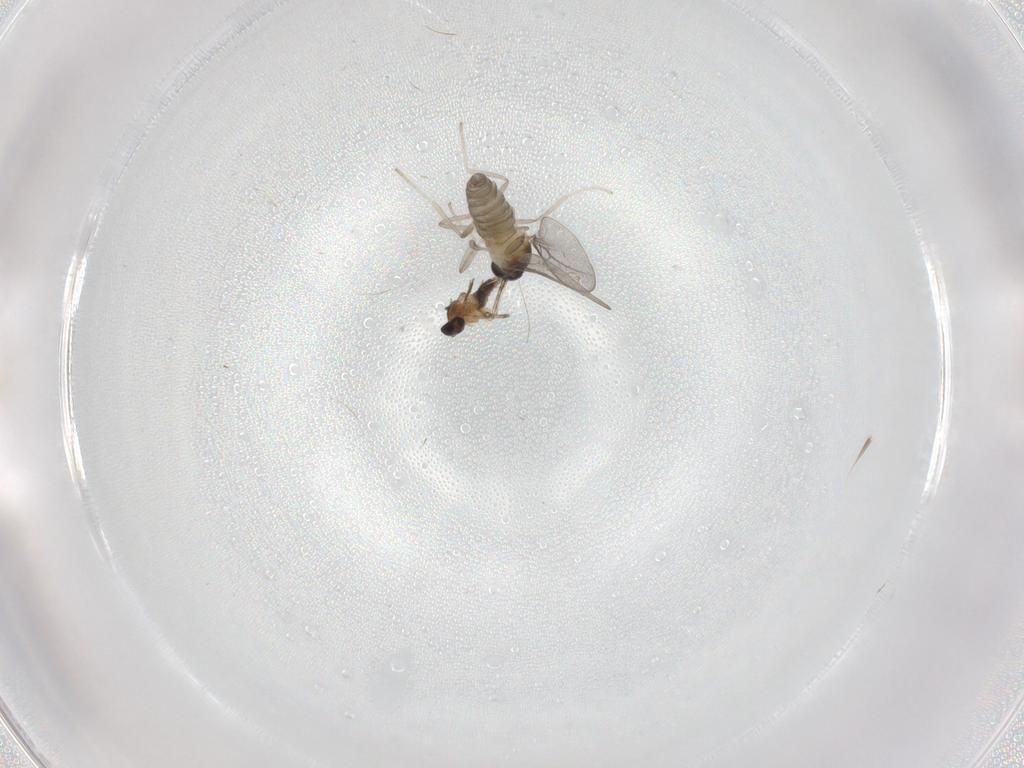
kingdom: Animalia
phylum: Arthropoda
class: Insecta
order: Diptera
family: Cecidomyiidae
